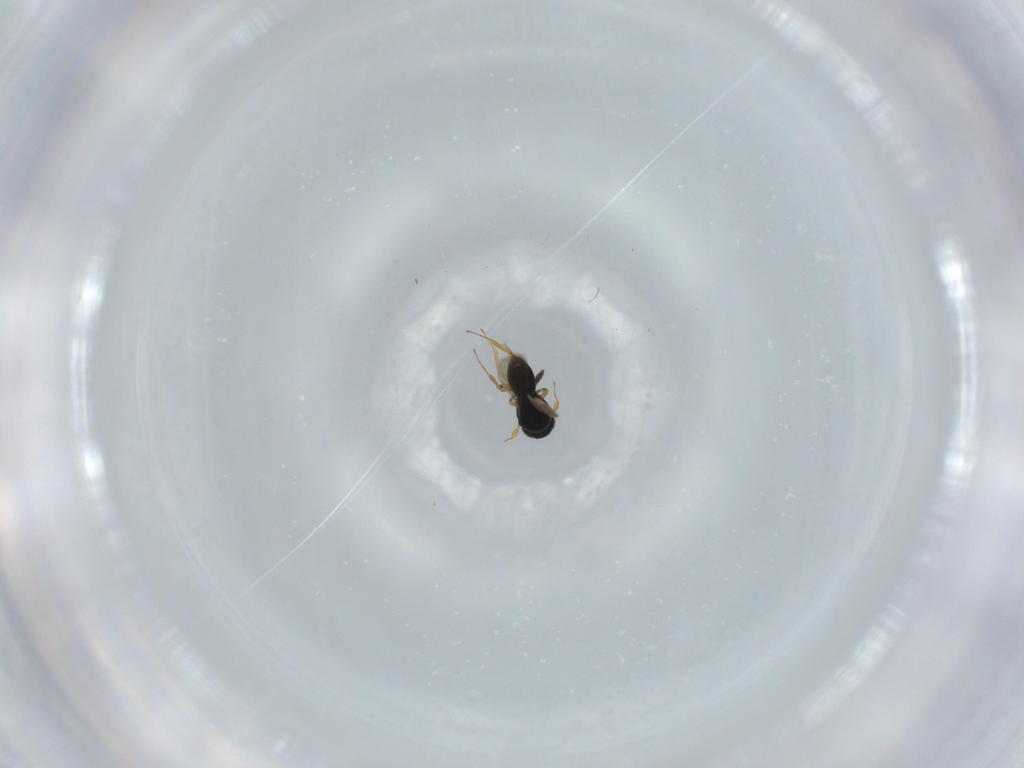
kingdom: Animalia
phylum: Arthropoda
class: Insecta
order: Hymenoptera
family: Scelionidae
